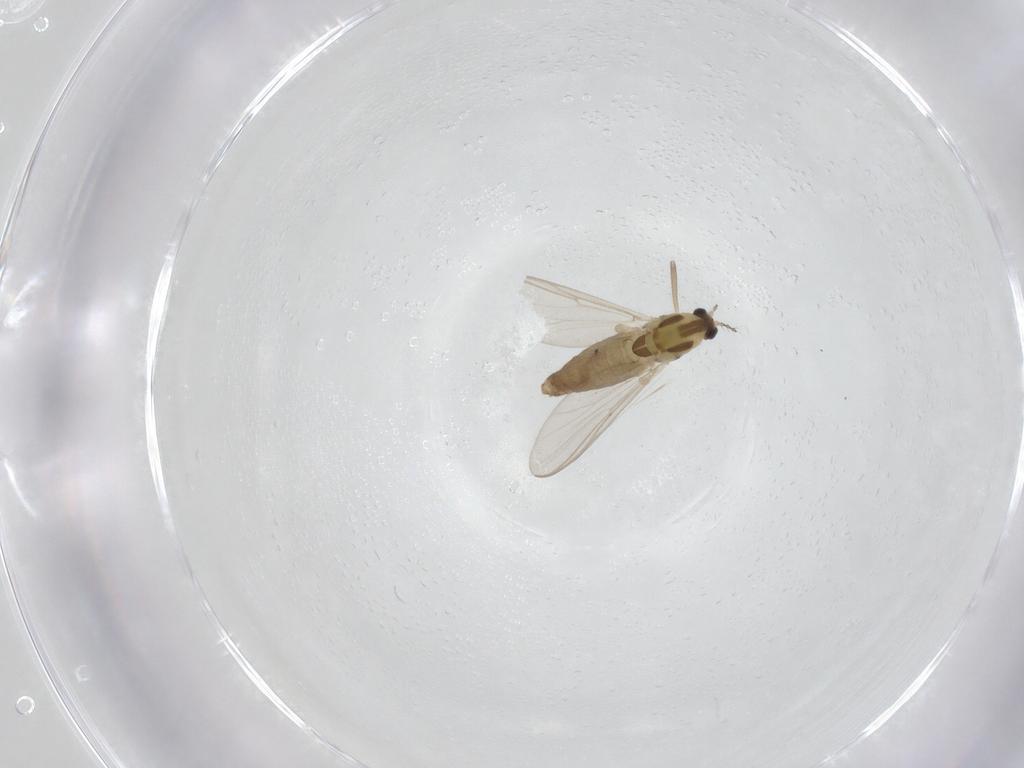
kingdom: Animalia
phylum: Arthropoda
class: Insecta
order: Diptera
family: Chironomidae
